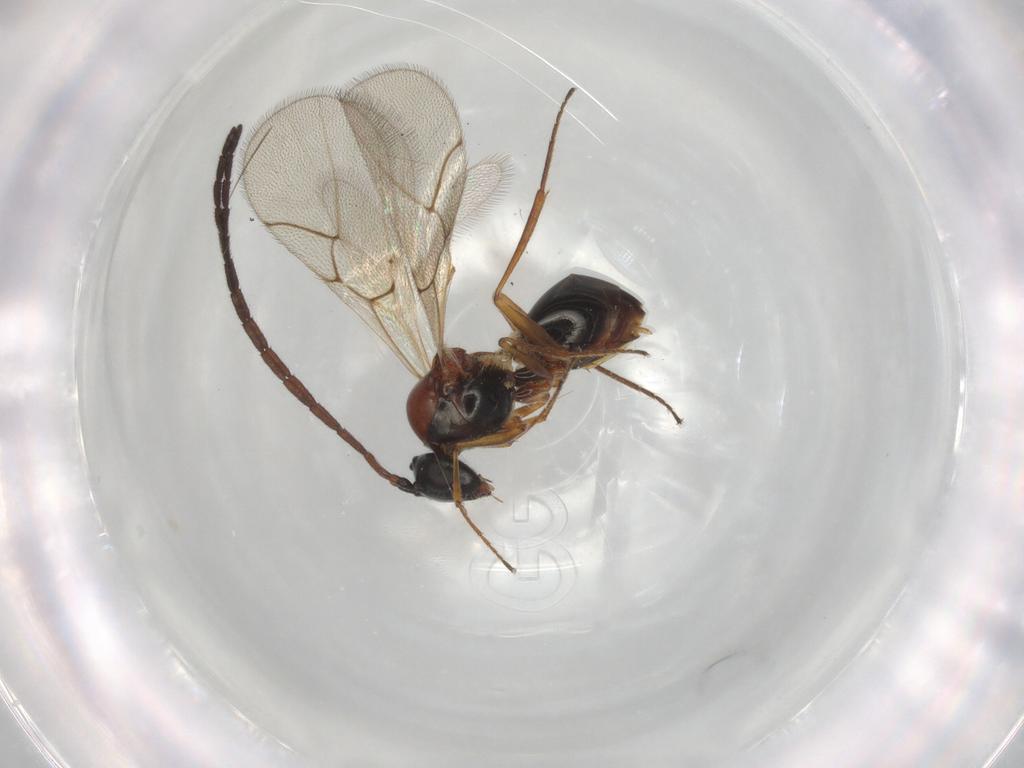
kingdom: Animalia
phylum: Arthropoda
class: Insecta
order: Hymenoptera
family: Figitidae
